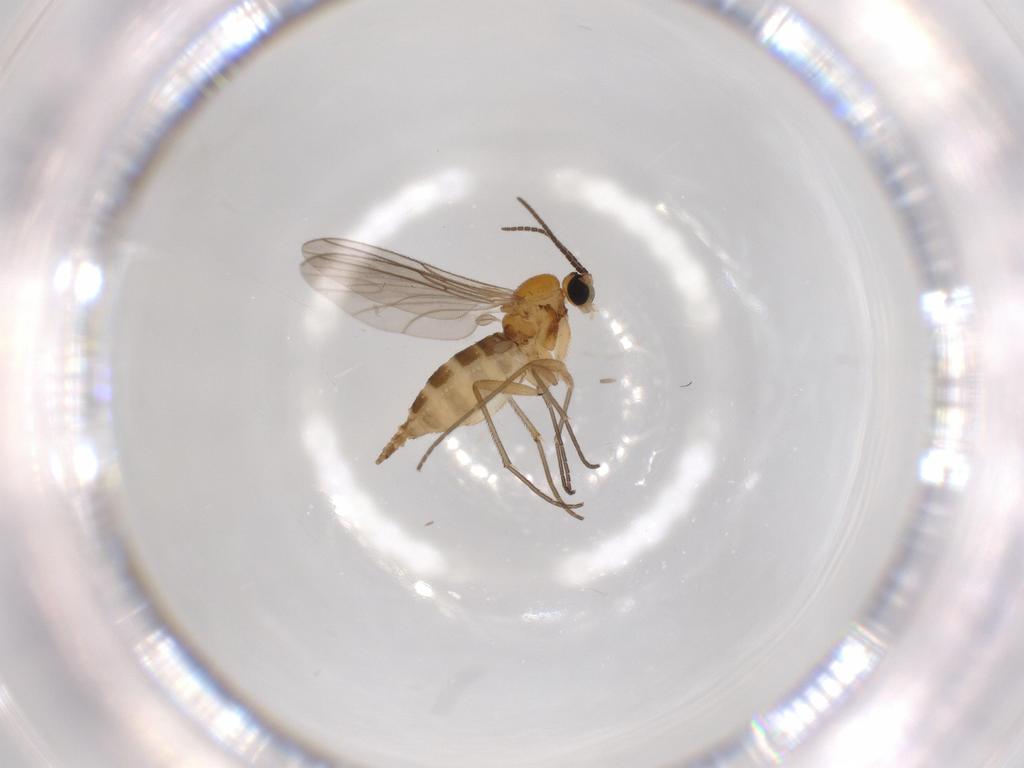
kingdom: Animalia
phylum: Arthropoda
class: Insecta
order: Diptera
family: Sciaridae
